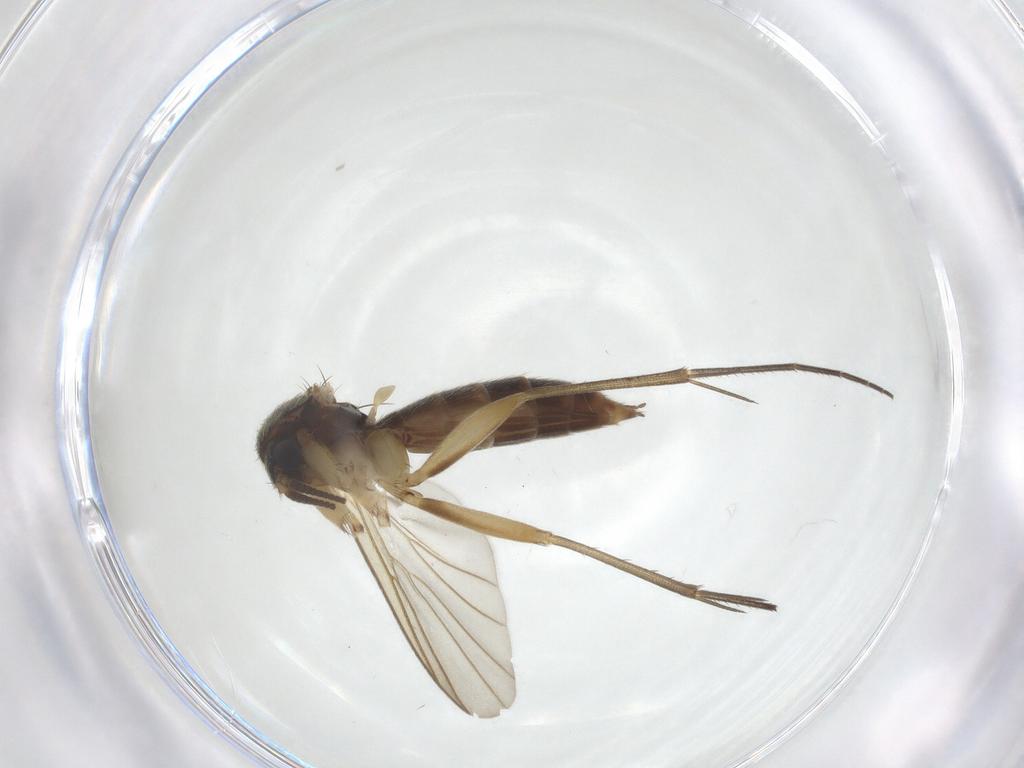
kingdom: Animalia
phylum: Arthropoda
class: Insecta
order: Diptera
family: Mycetophilidae
